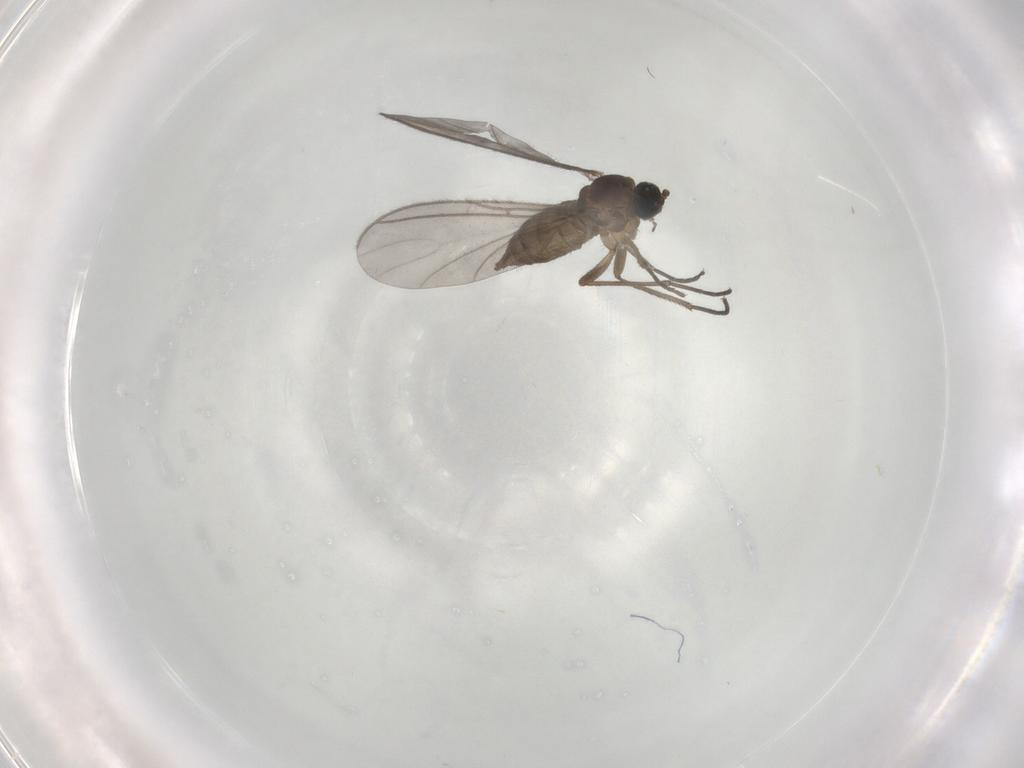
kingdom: Animalia
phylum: Arthropoda
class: Insecta
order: Diptera
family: Sciaridae
